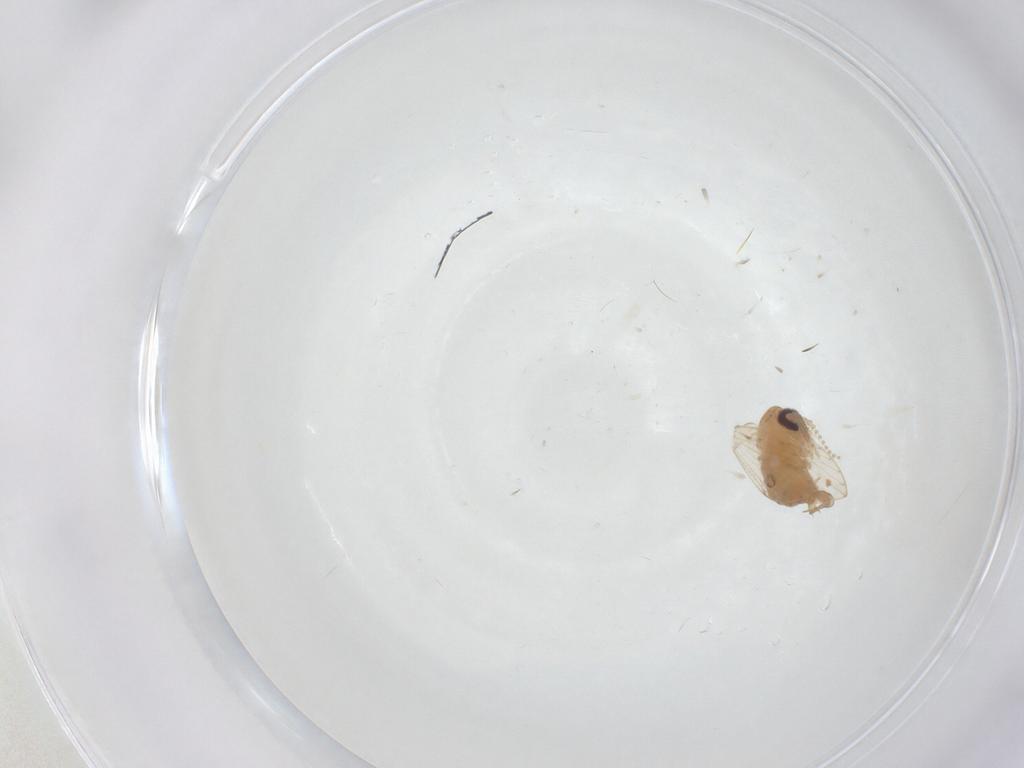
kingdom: Animalia
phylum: Arthropoda
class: Insecta
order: Diptera
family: Psychodidae
